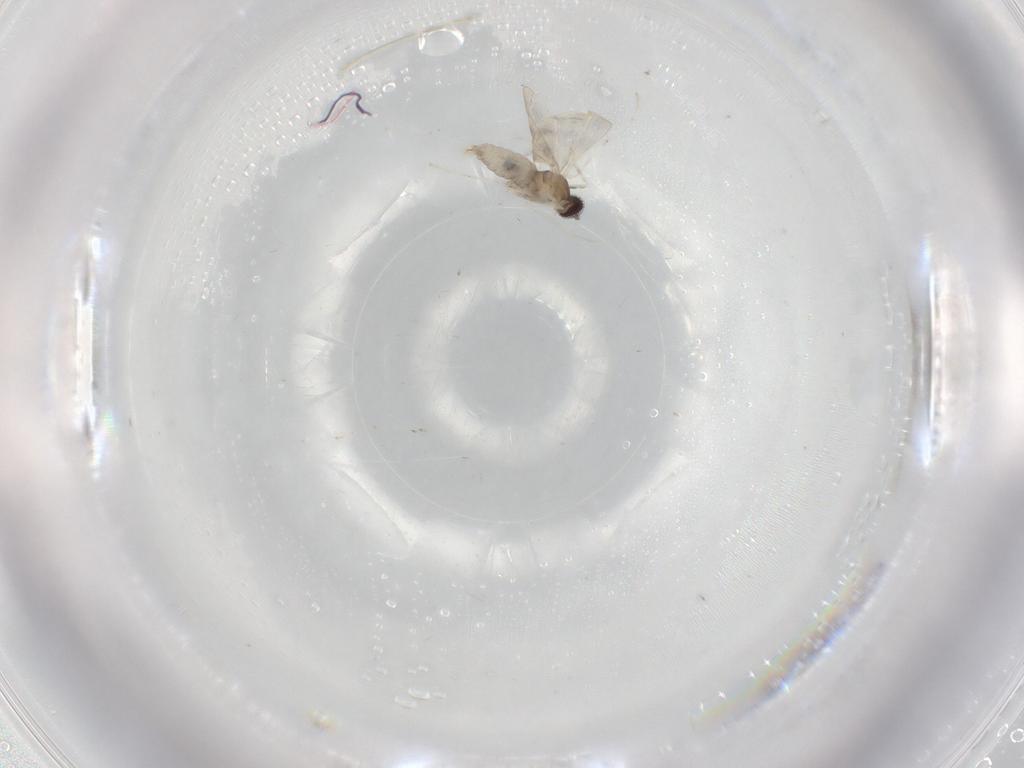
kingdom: Animalia
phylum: Arthropoda
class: Insecta
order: Diptera
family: Cecidomyiidae
